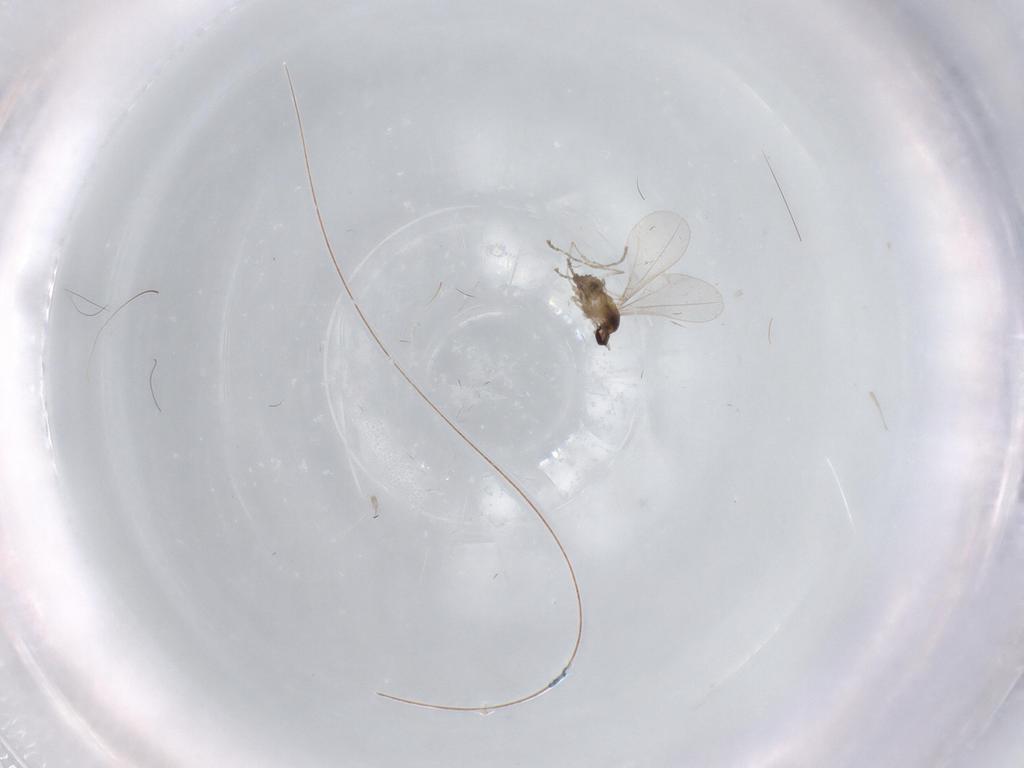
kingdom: Animalia
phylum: Arthropoda
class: Insecta
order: Diptera
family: Cecidomyiidae
